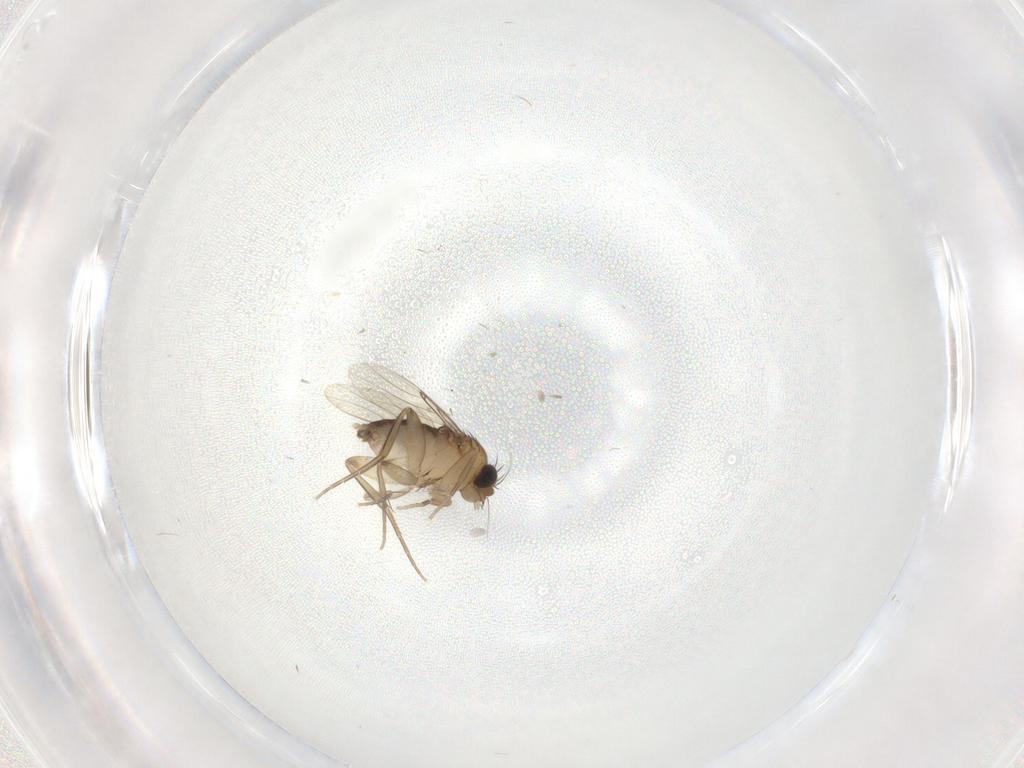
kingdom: Animalia
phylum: Arthropoda
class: Insecta
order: Diptera
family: Phoridae
